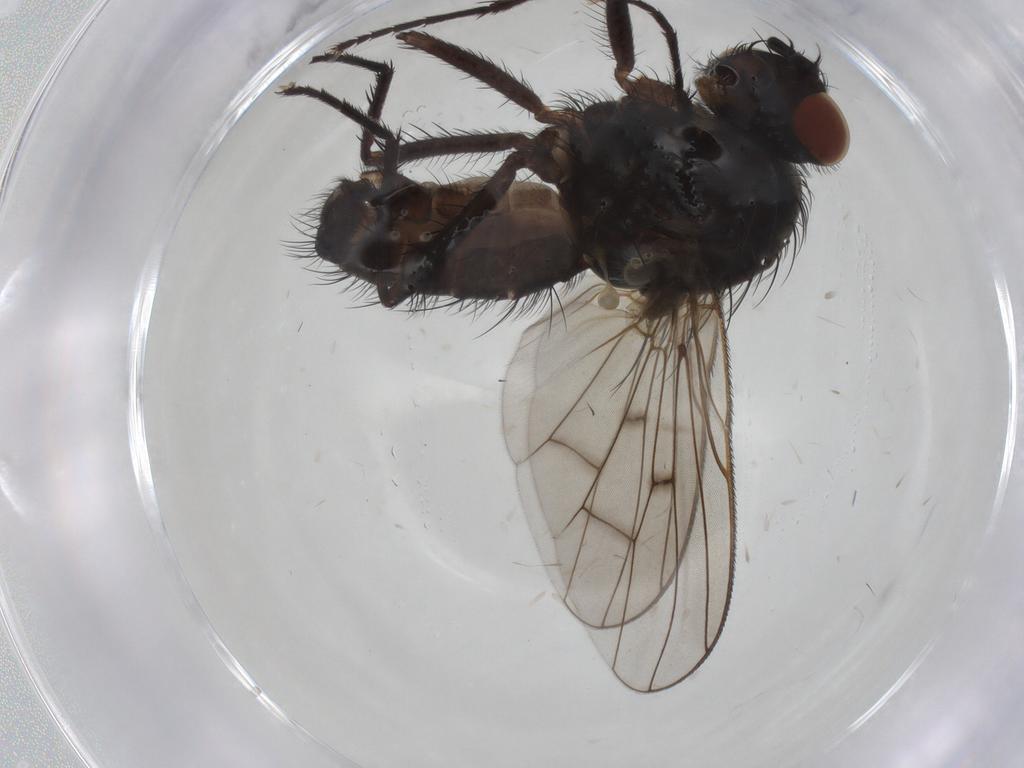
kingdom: Animalia
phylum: Arthropoda
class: Insecta
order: Diptera
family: Anthomyiidae
